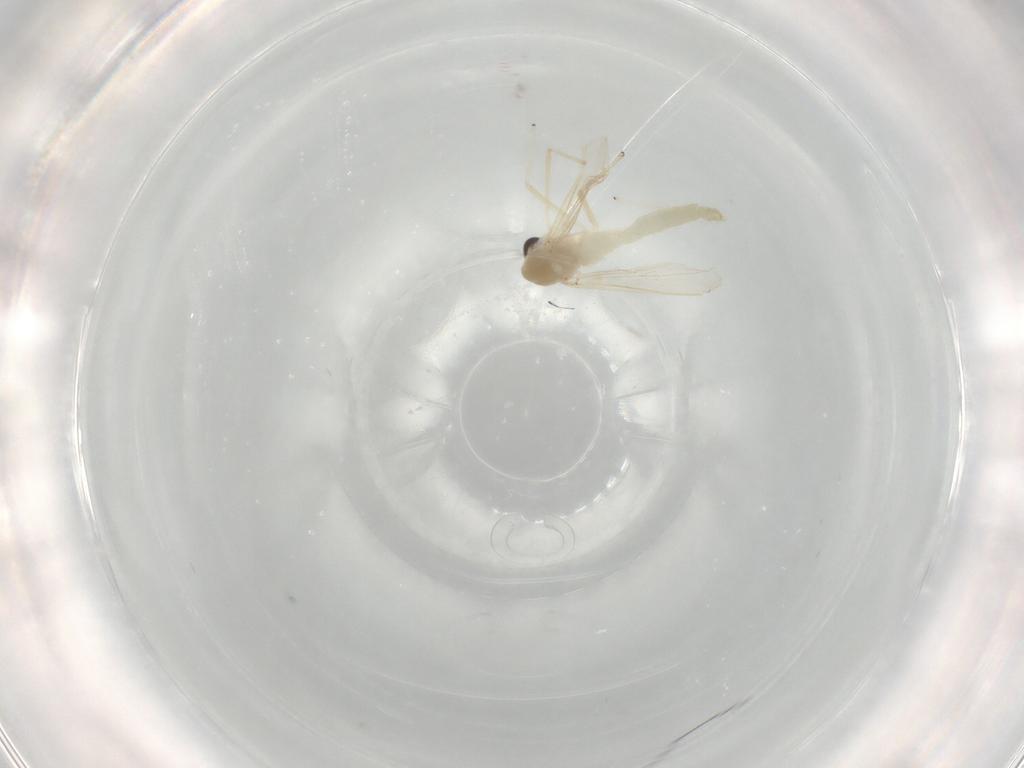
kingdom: Animalia
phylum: Arthropoda
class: Insecta
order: Diptera
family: Chironomidae
